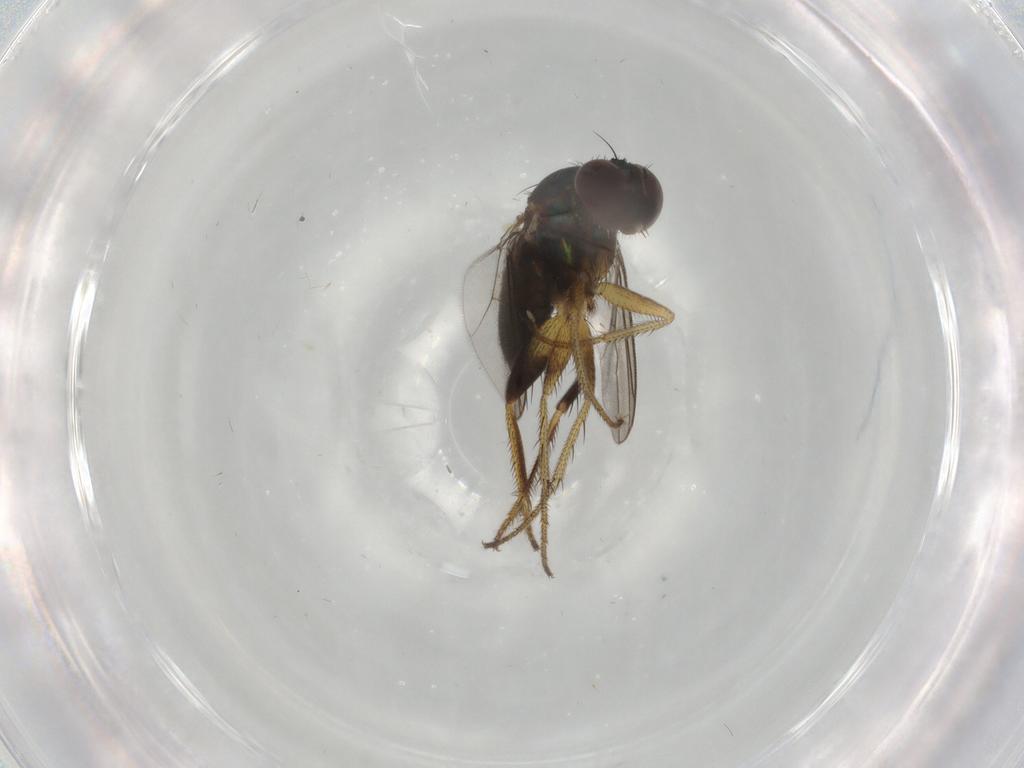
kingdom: Animalia
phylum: Arthropoda
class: Insecta
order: Diptera
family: Dolichopodidae
